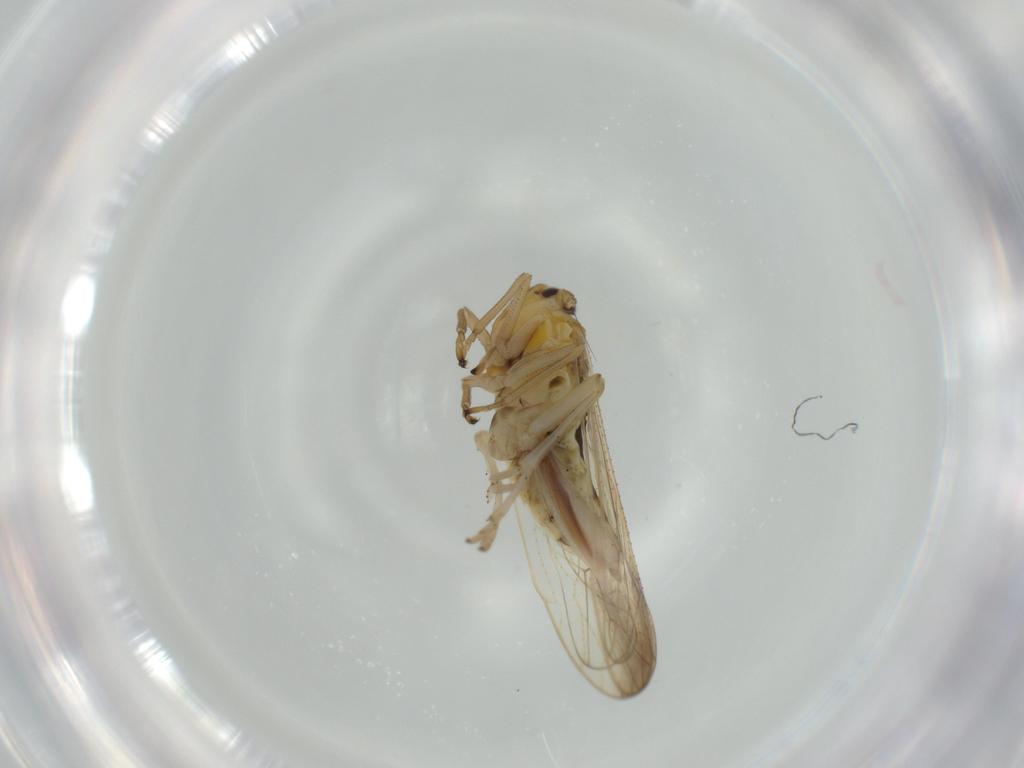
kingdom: Animalia
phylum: Arthropoda
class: Insecta
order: Hemiptera
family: Delphacidae
